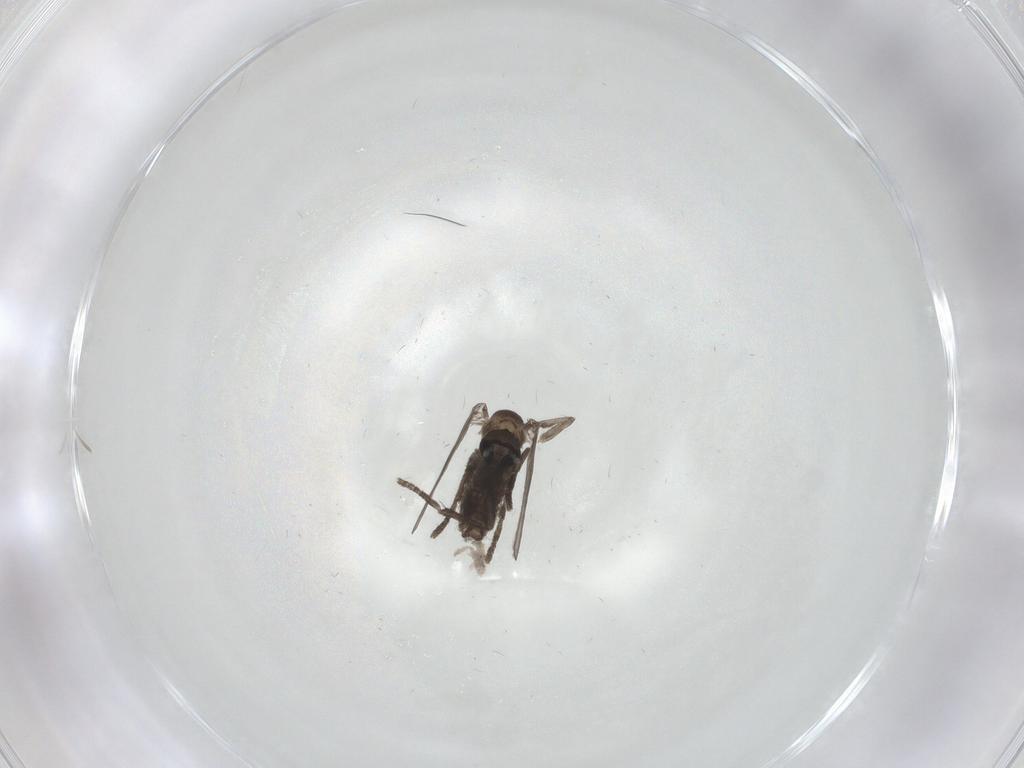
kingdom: Animalia
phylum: Arthropoda
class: Insecta
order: Diptera
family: Psychodidae
